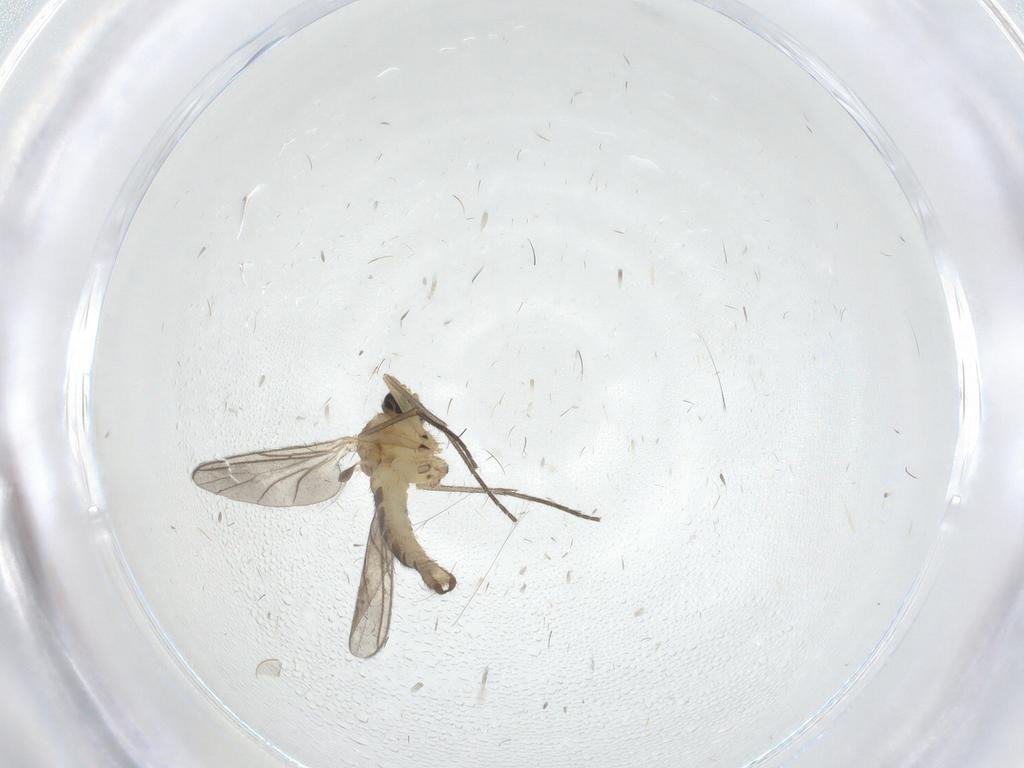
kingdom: Animalia
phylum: Arthropoda
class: Insecta
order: Diptera
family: Sciaridae
